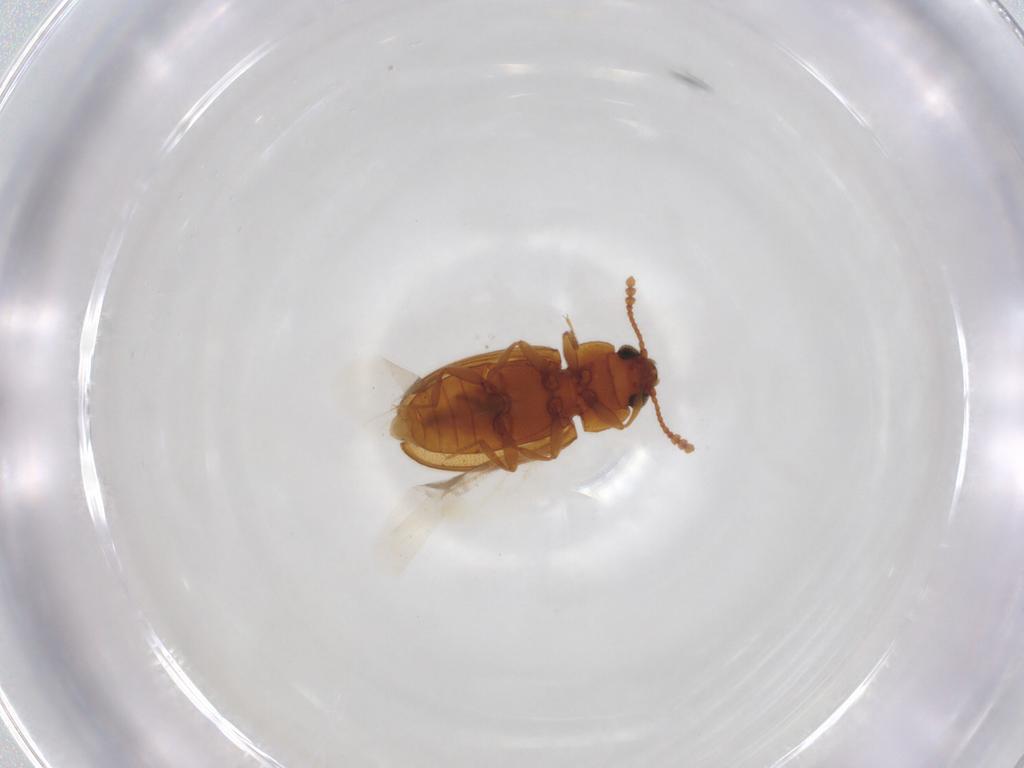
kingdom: Animalia
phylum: Arthropoda
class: Insecta
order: Coleoptera
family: Erotylidae
